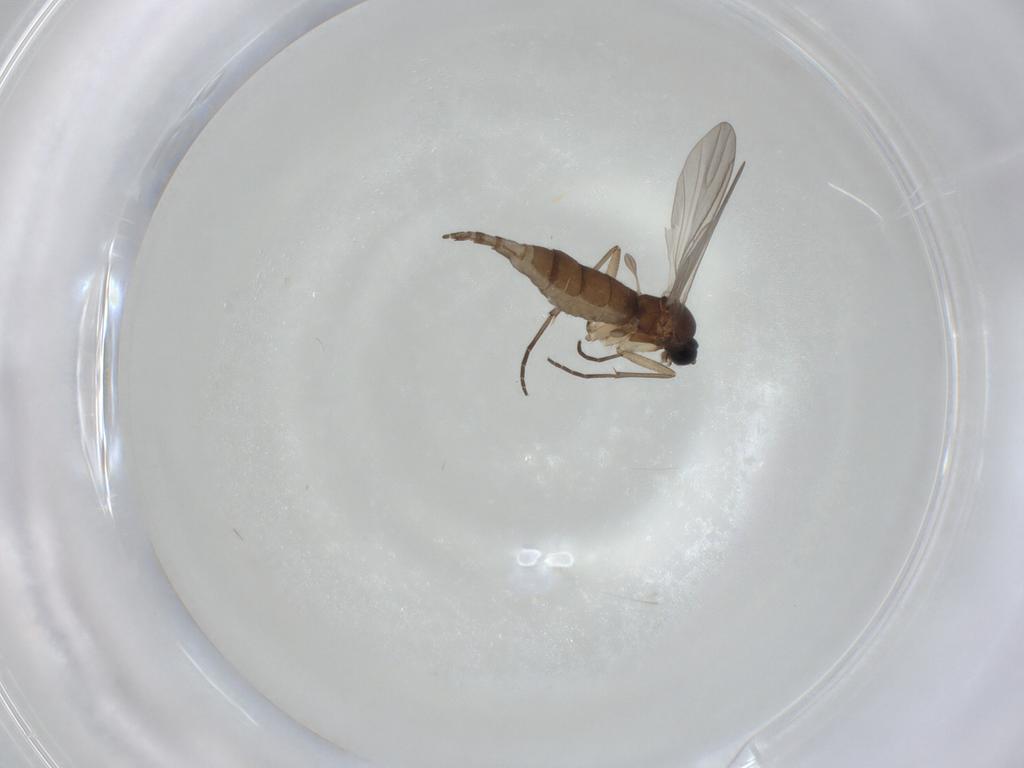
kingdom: Animalia
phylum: Arthropoda
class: Insecta
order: Diptera
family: Sciaridae
